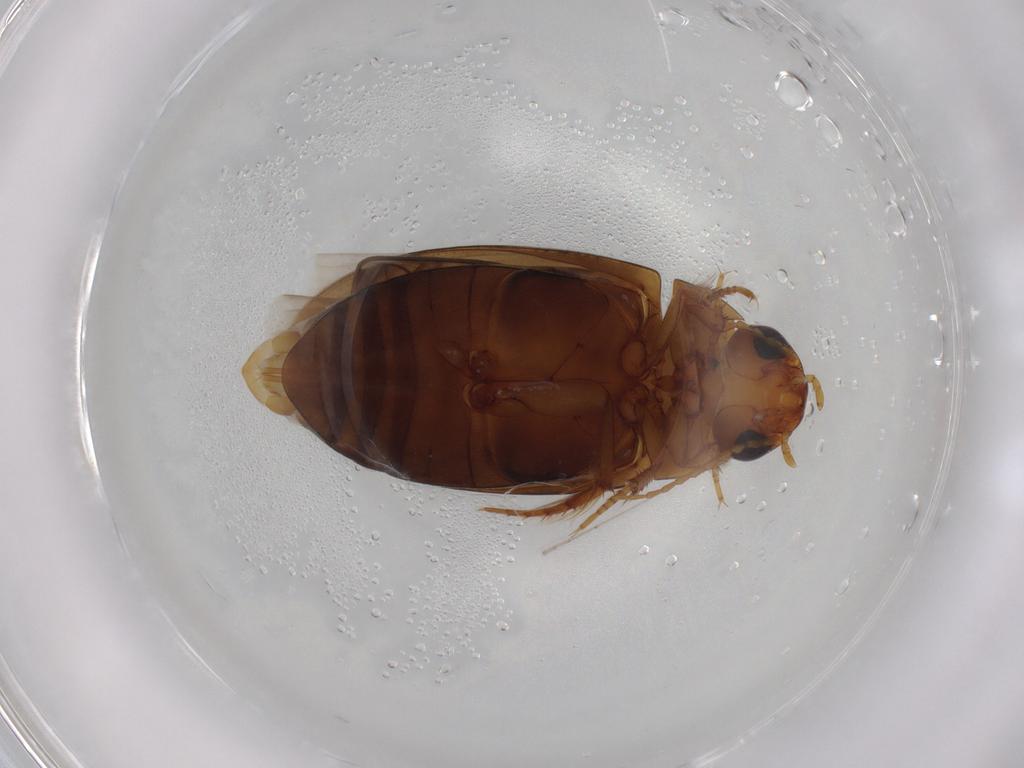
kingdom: Animalia
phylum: Arthropoda
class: Insecta
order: Coleoptera
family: Dytiscidae
